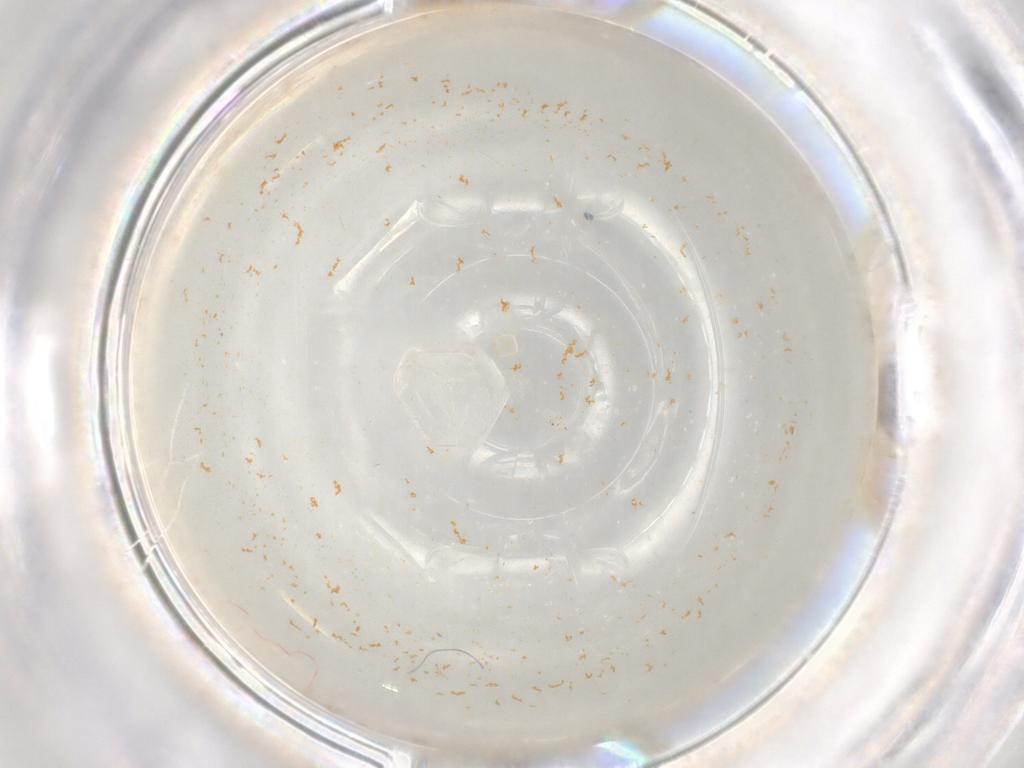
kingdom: Animalia
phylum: Arthropoda
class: Insecta
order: Diptera
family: Cecidomyiidae
